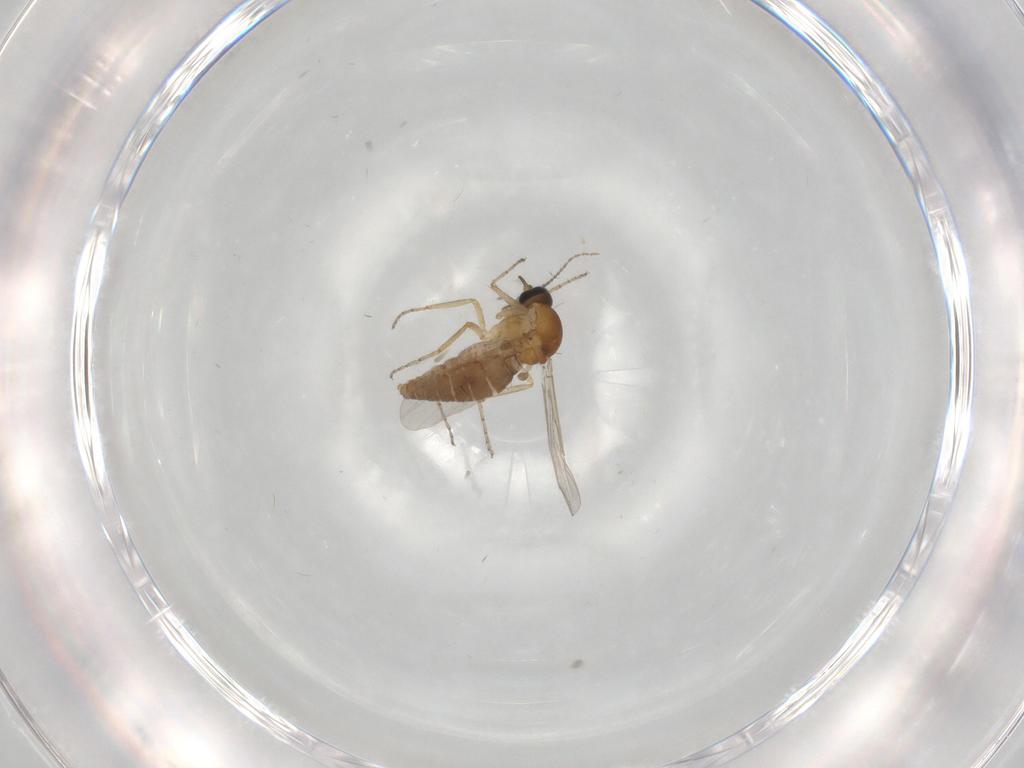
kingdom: Animalia
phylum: Arthropoda
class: Insecta
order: Diptera
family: Ceratopogonidae
